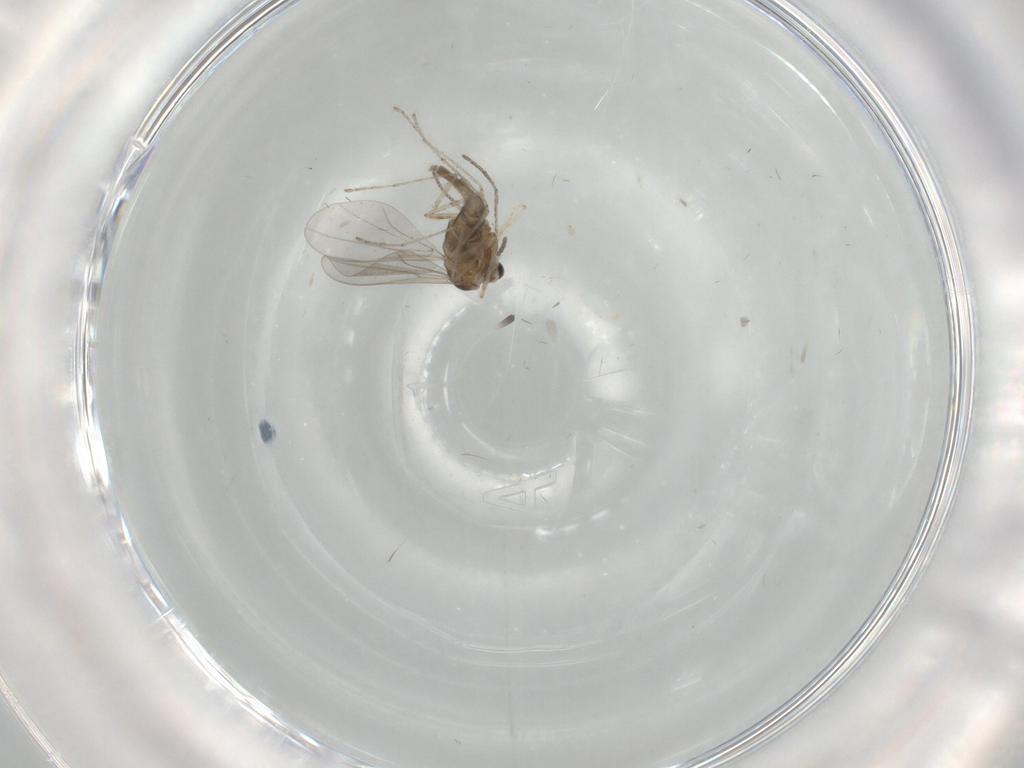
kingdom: Animalia
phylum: Arthropoda
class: Insecta
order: Diptera
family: Cecidomyiidae
